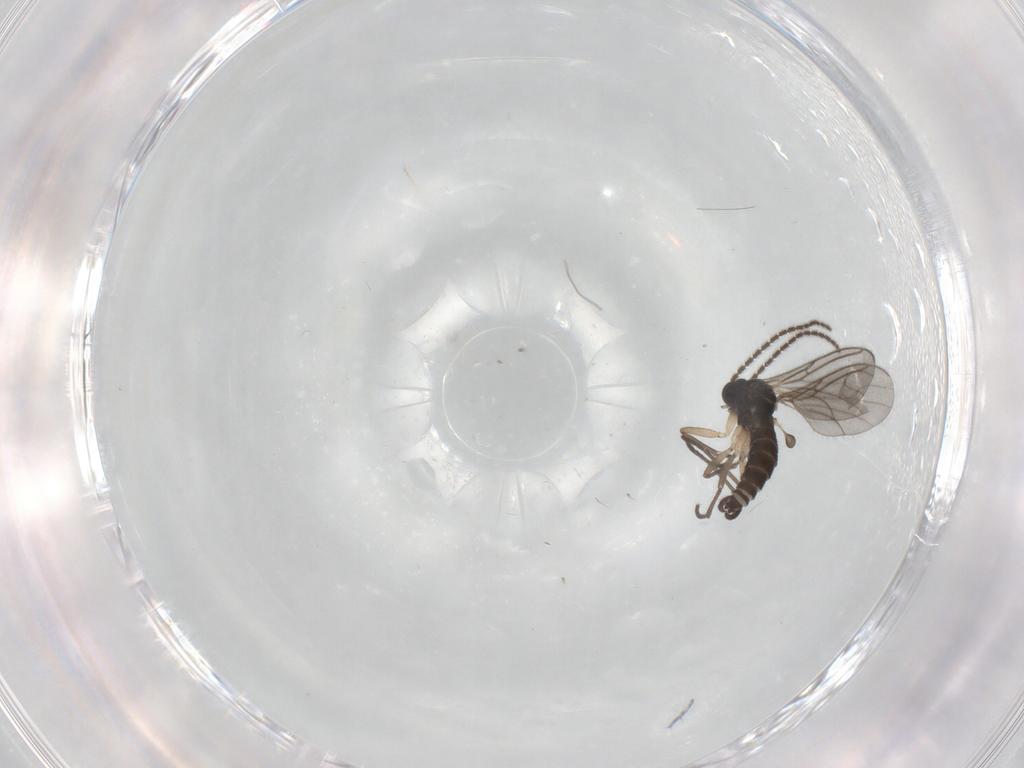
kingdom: Animalia
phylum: Arthropoda
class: Insecta
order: Diptera
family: Sciaridae
